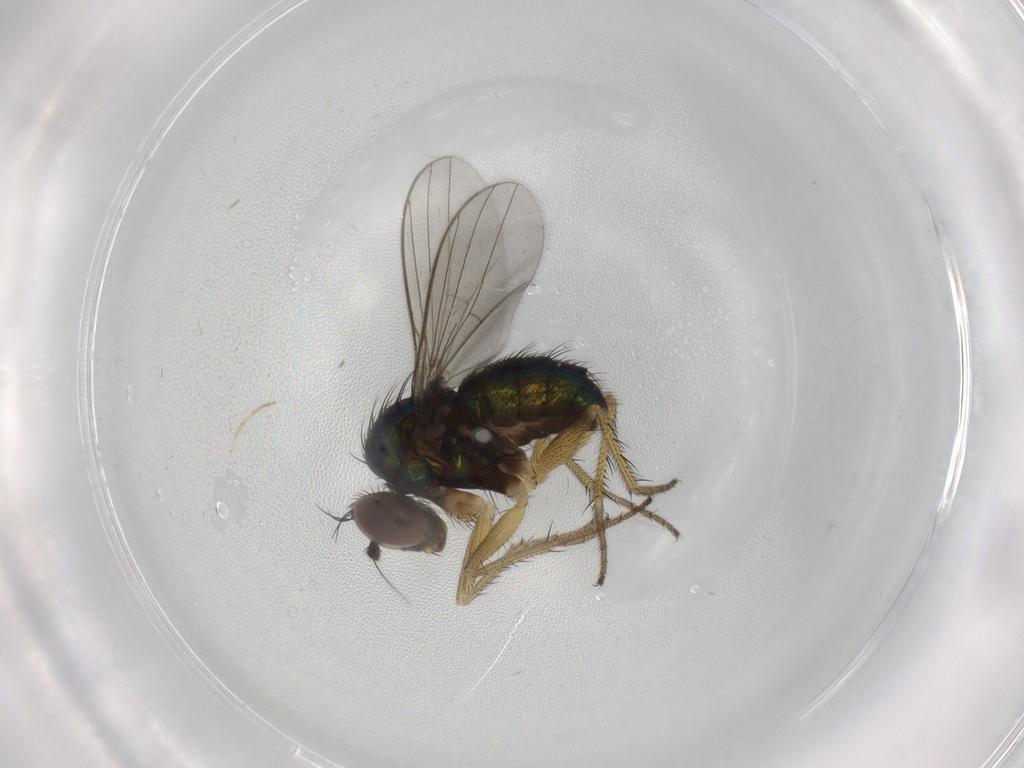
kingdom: Animalia
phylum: Arthropoda
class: Insecta
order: Diptera
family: Dolichopodidae
